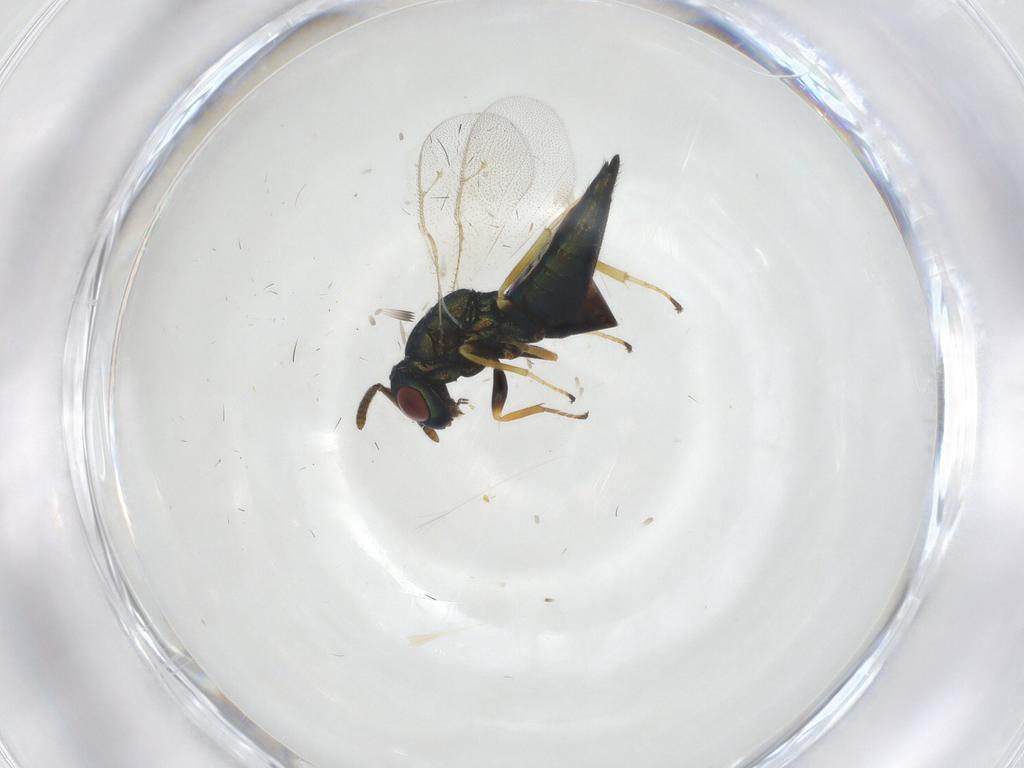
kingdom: Animalia
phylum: Arthropoda
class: Insecta
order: Hymenoptera
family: Pteromalidae
